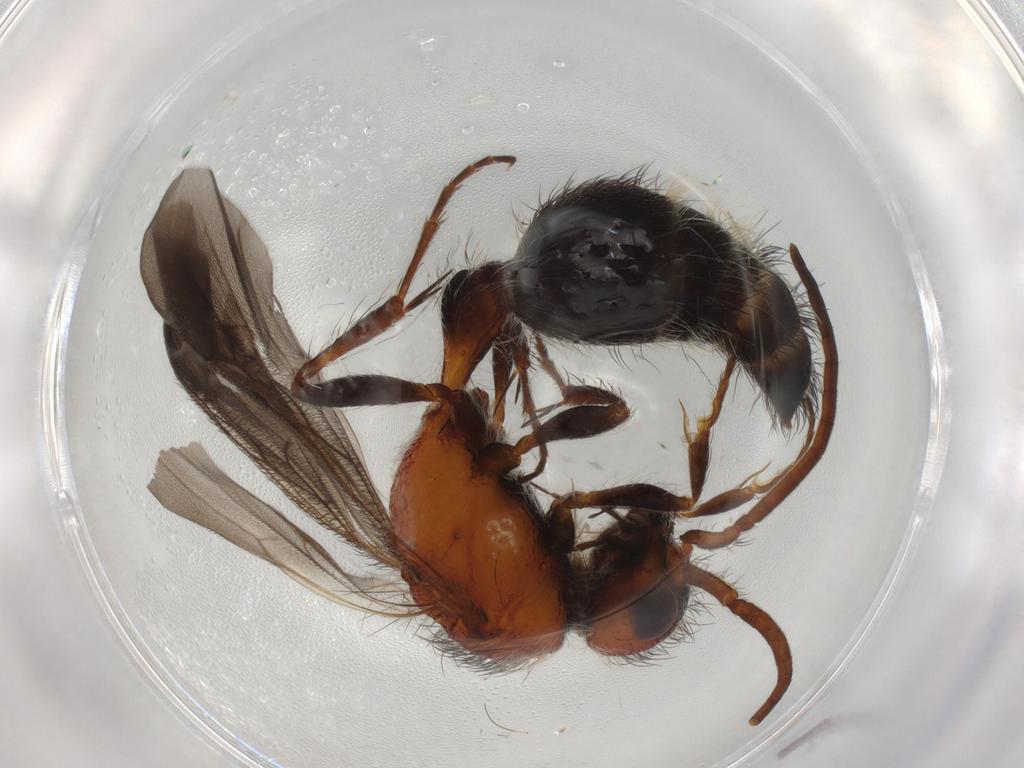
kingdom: Animalia
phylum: Arthropoda
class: Insecta
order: Hymenoptera
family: Mutillidae
